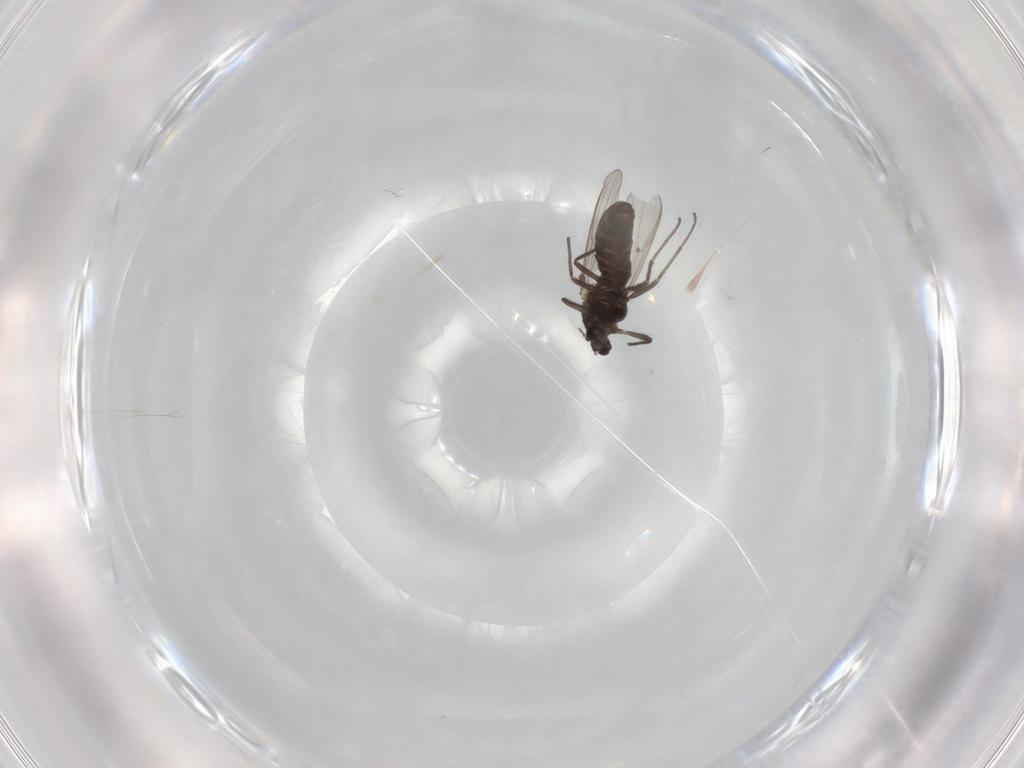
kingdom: Animalia
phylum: Arthropoda
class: Insecta
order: Diptera
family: Chironomidae
